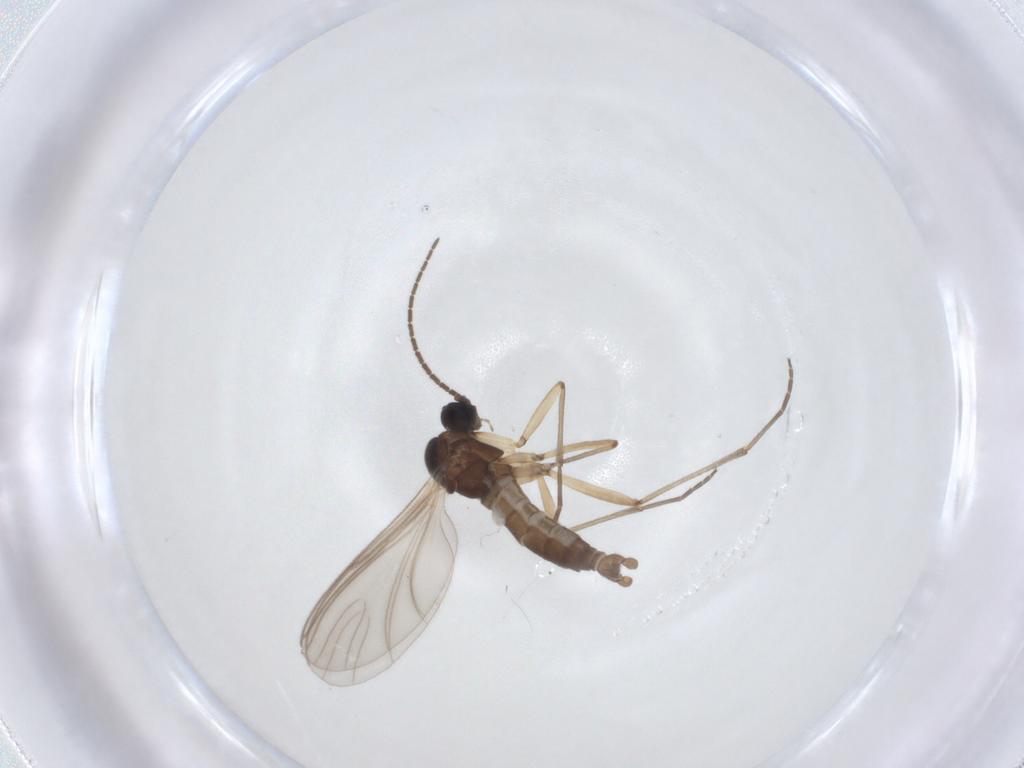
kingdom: Animalia
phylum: Arthropoda
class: Insecta
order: Diptera
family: Sciaridae
